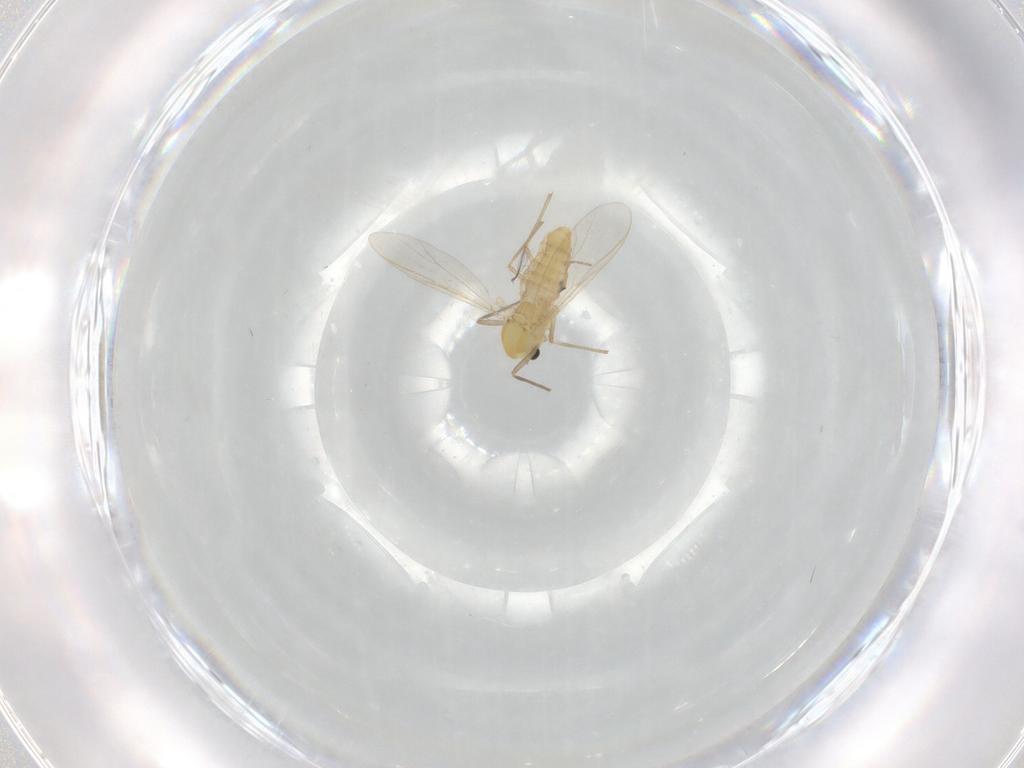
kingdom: Animalia
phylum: Arthropoda
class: Insecta
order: Diptera
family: Chironomidae
